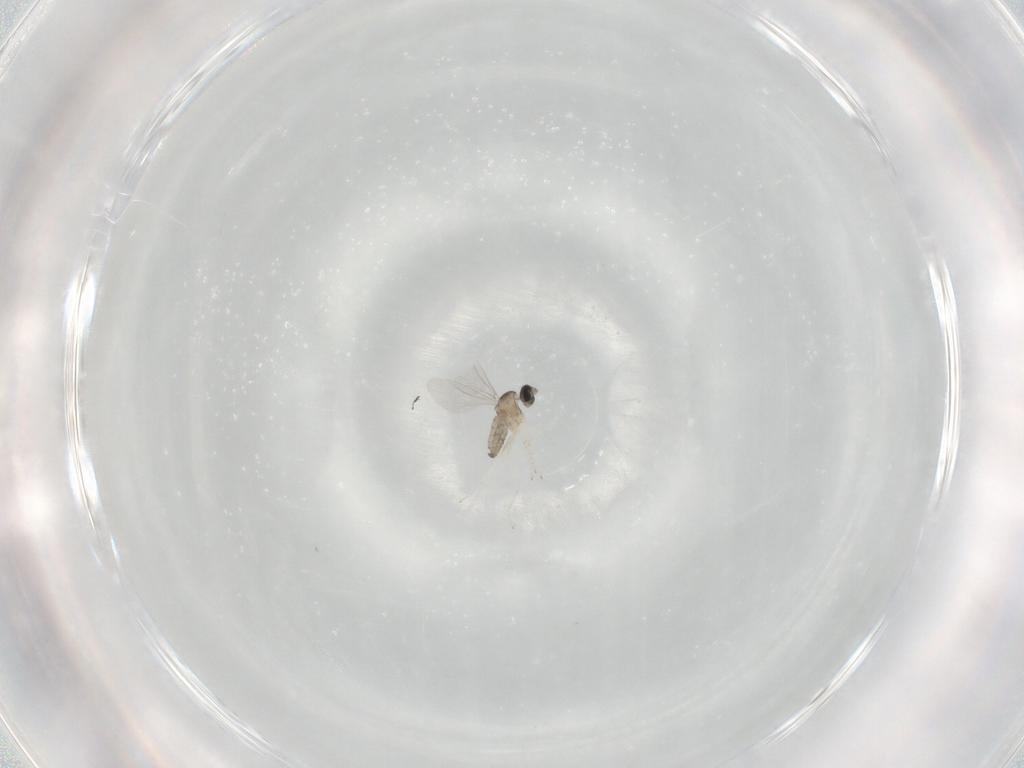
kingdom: Animalia
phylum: Arthropoda
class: Insecta
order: Diptera
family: Cecidomyiidae
